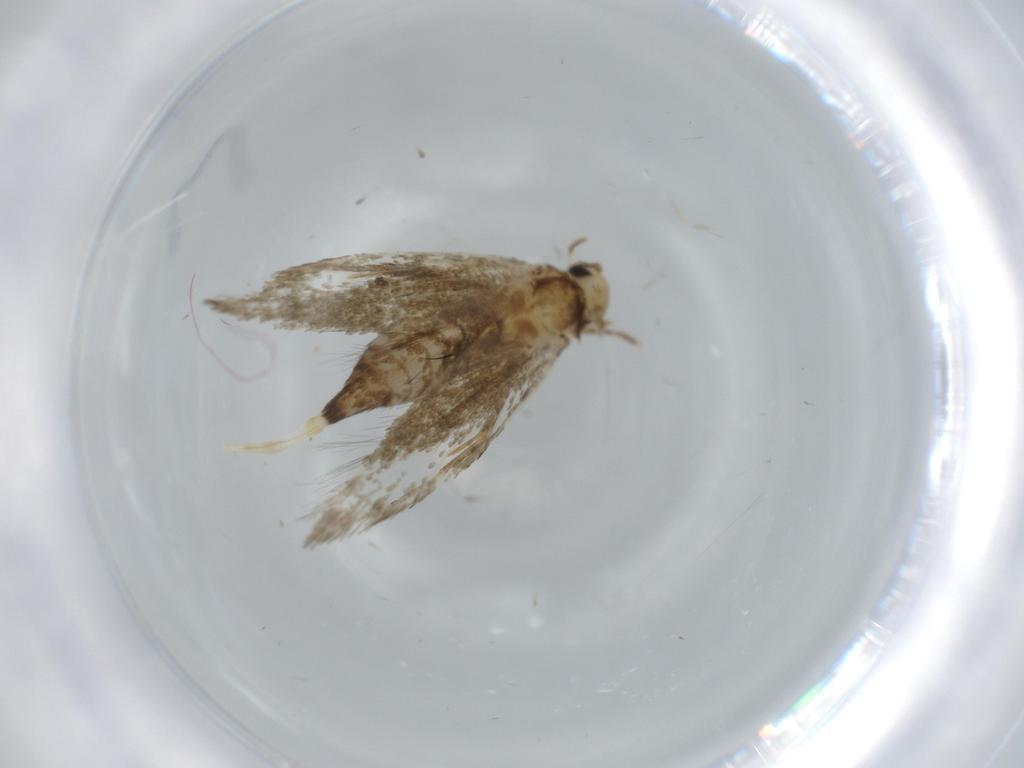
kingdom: Animalia
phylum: Arthropoda
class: Insecta
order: Lepidoptera
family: Tineidae
